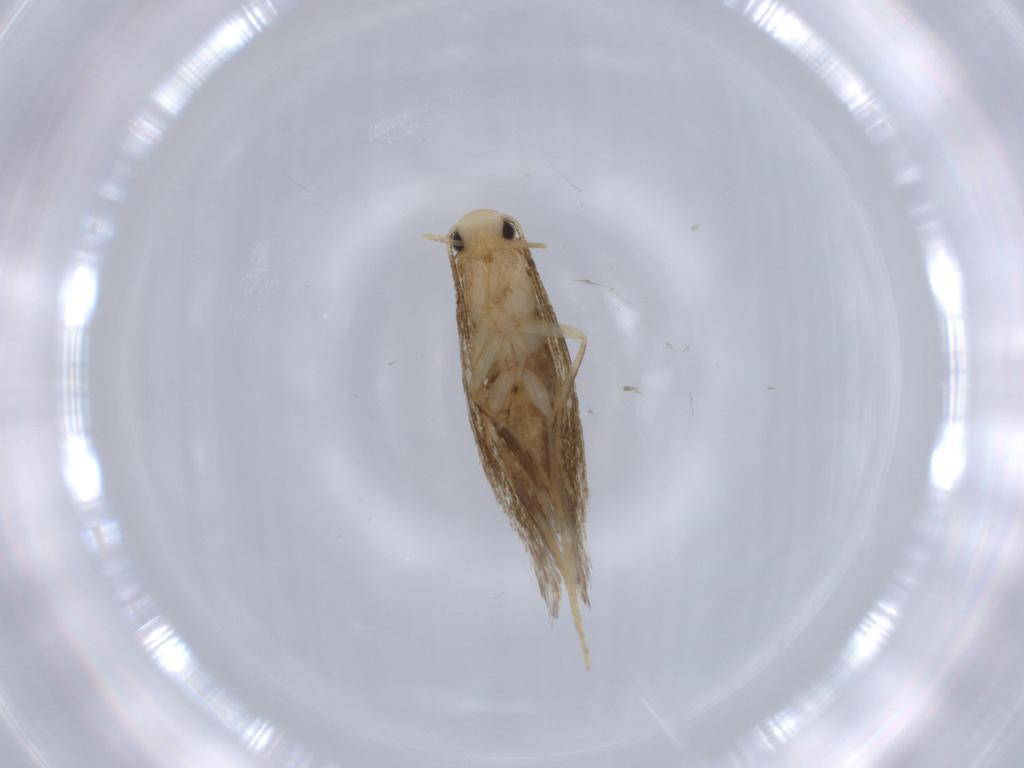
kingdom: Animalia
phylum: Arthropoda
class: Insecta
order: Lepidoptera
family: Tineidae
